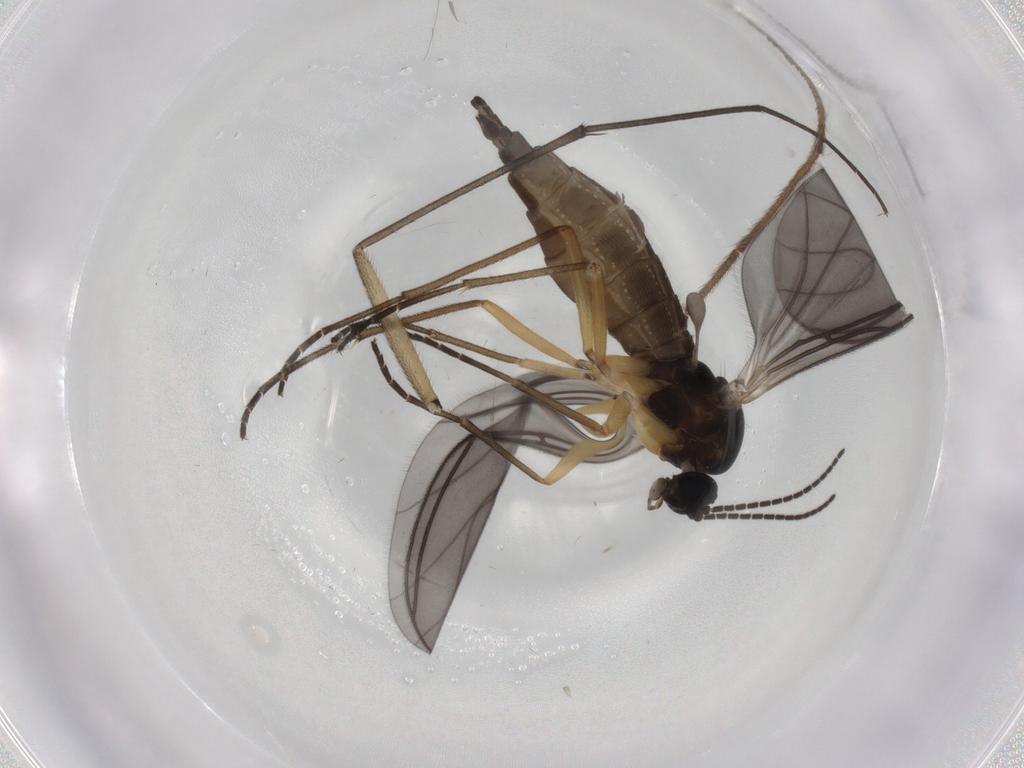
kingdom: Animalia
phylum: Arthropoda
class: Insecta
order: Diptera
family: Sciaridae
